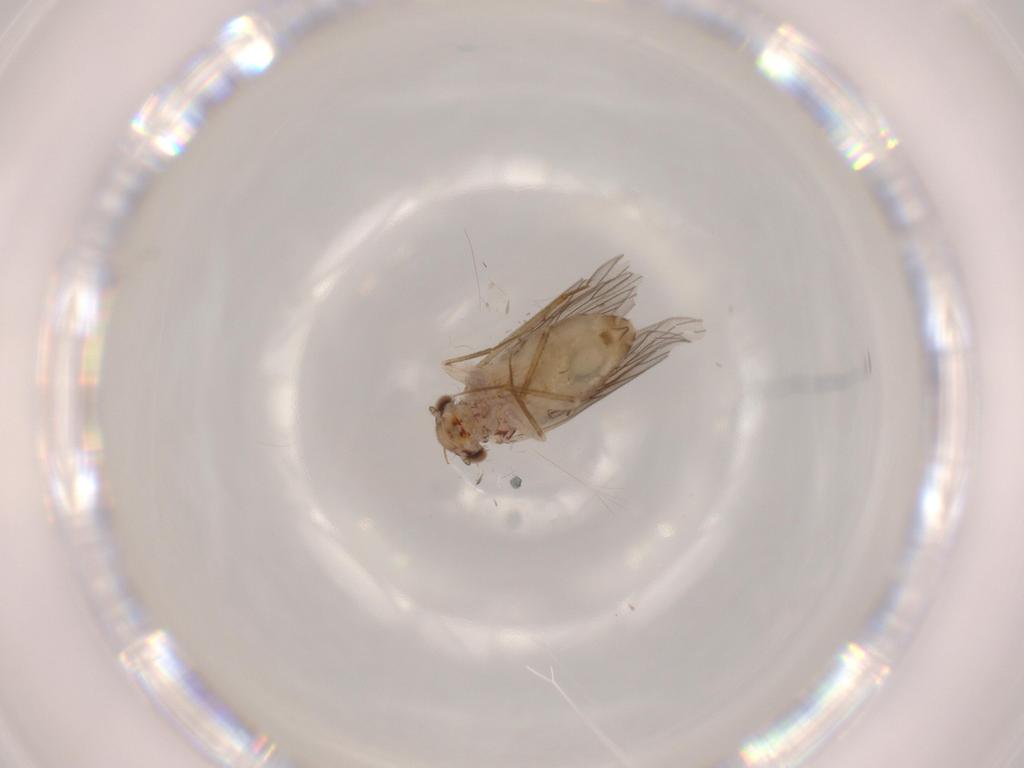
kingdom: Animalia
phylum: Arthropoda
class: Insecta
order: Psocodea
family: Lepidopsocidae
